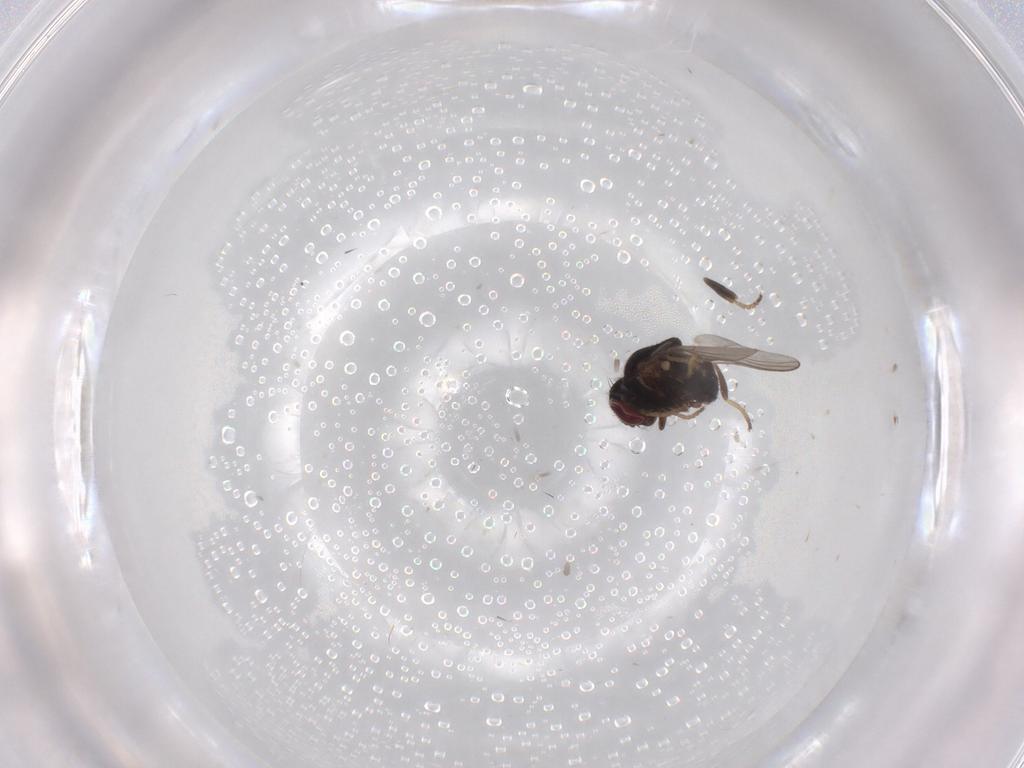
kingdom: Animalia
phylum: Arthropoda
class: Insecta
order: Diptera
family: Chloropidae
